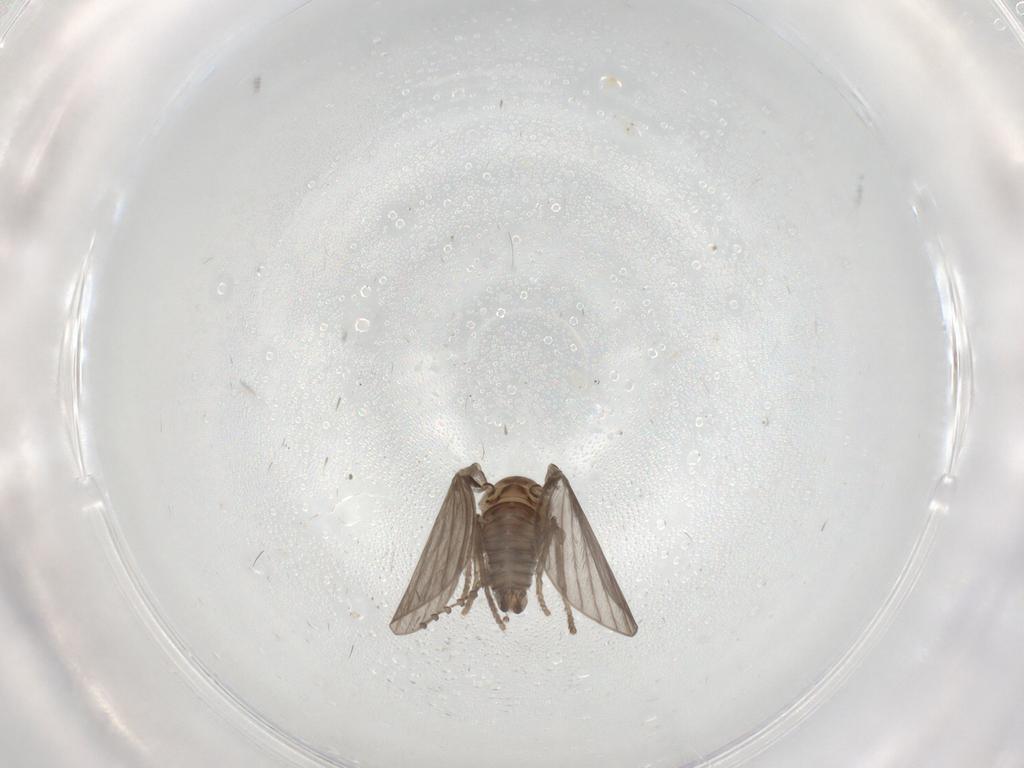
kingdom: Animalia
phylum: Arthropoda
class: Insecta
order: Diptera
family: Psychodidae
